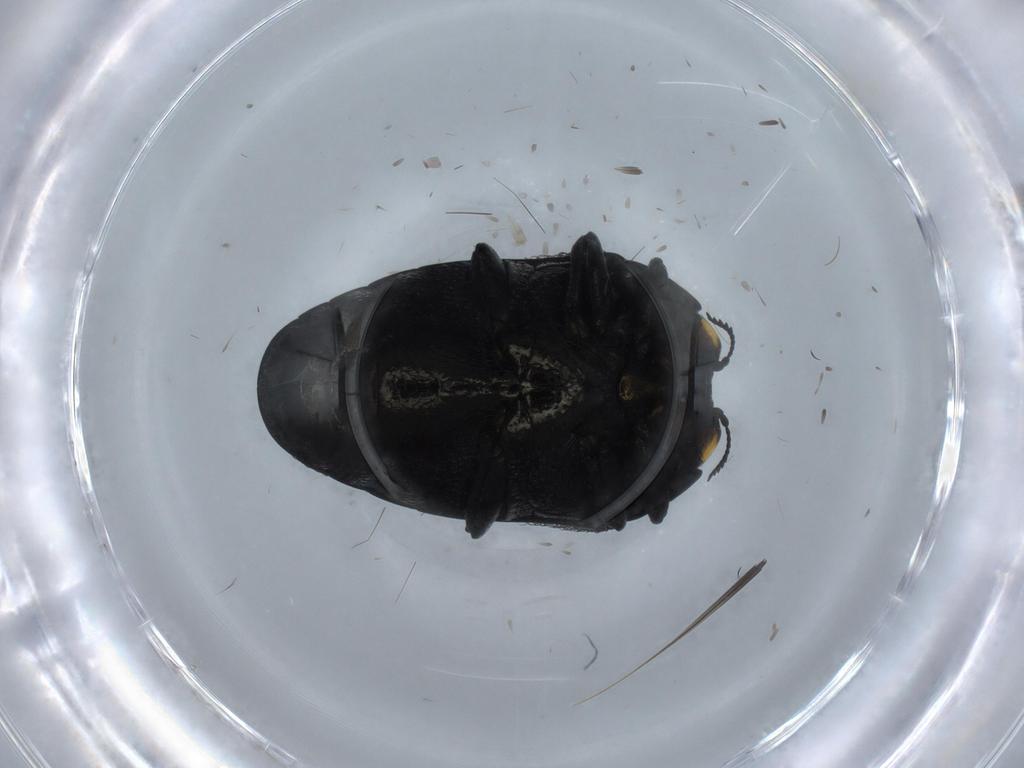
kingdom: Animalia
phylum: Arthropoda
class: Insecta
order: Coleoptera
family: Buprestidae
